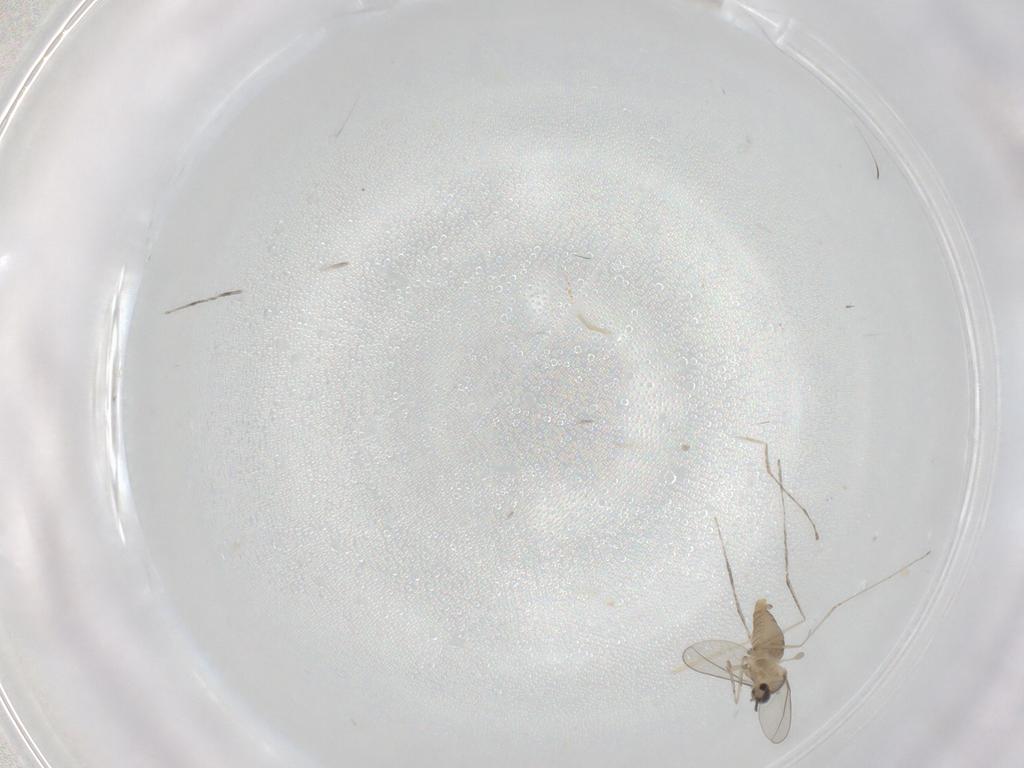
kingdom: Animalia
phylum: Arthropoda
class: Insecta
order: Diptera
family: Cecidomyiidae
